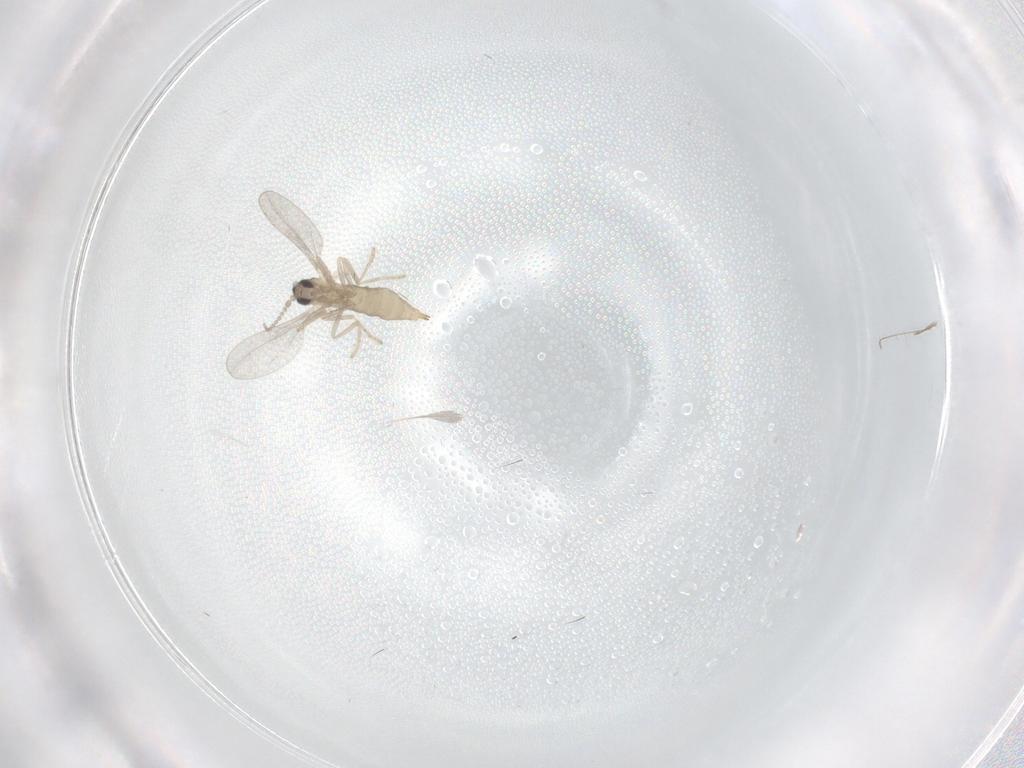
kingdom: Animalia
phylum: Arthropoda
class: Insecta
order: Diptera
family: Cecidomyiidae
